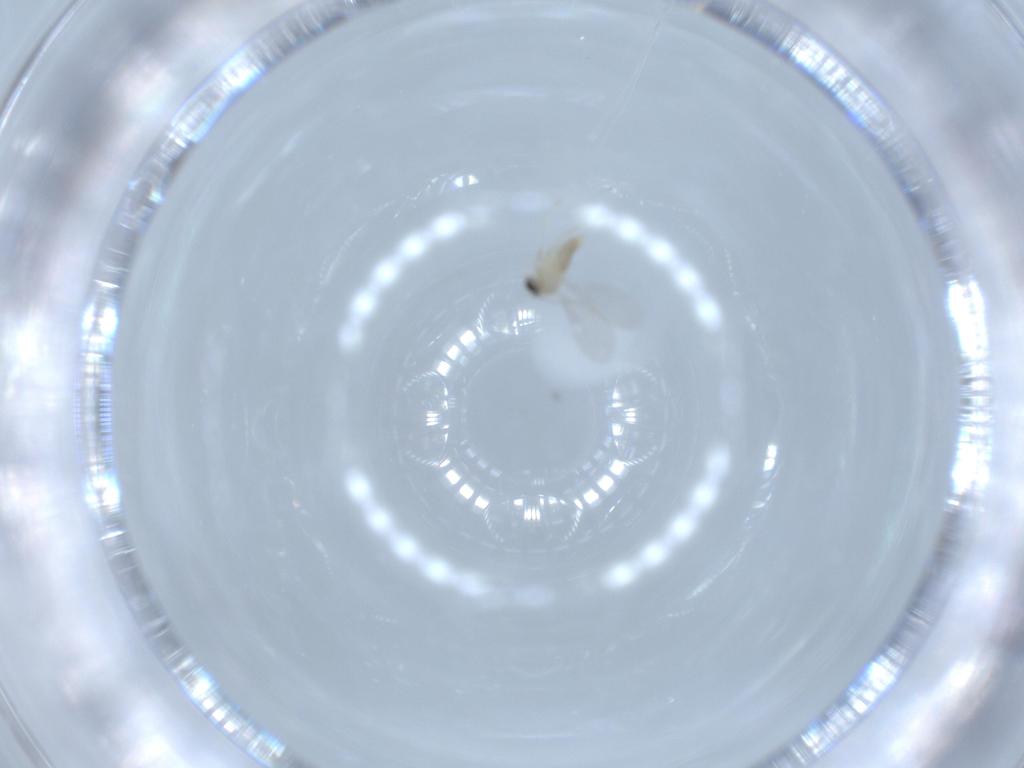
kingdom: Animalia
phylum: Arthropoda
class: Insecta
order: Diptera
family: Cecidomyiidae
